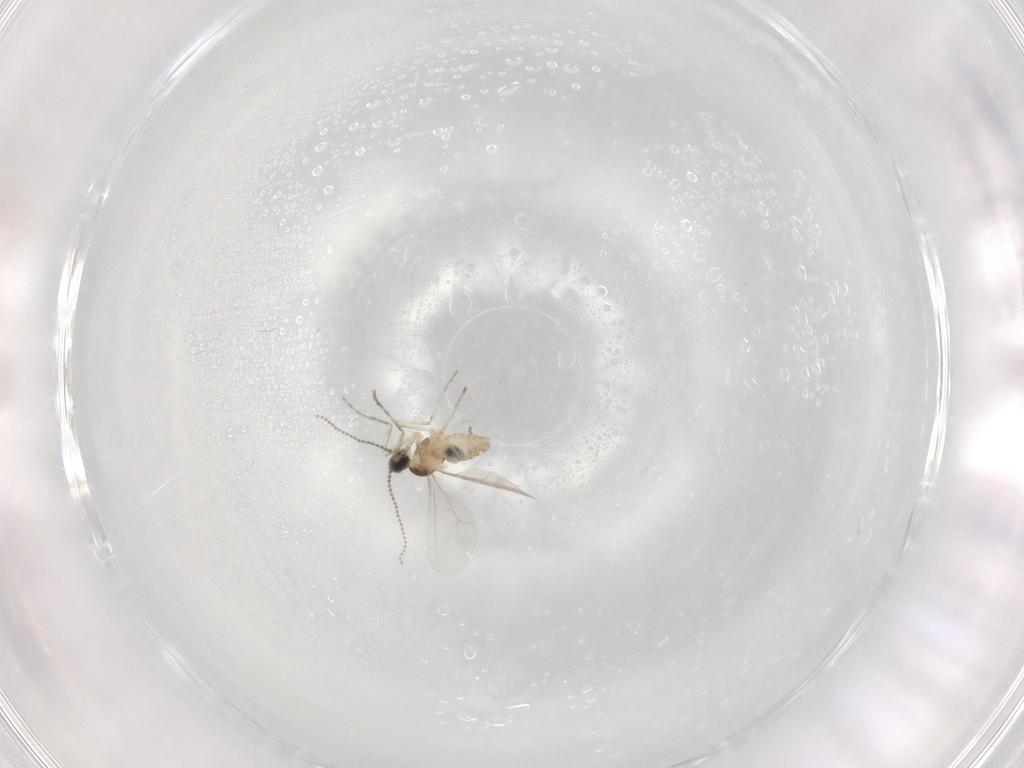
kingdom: Animalia
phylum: Arthropoda
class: Insecta
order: Diptera
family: Cecidomyiidae
